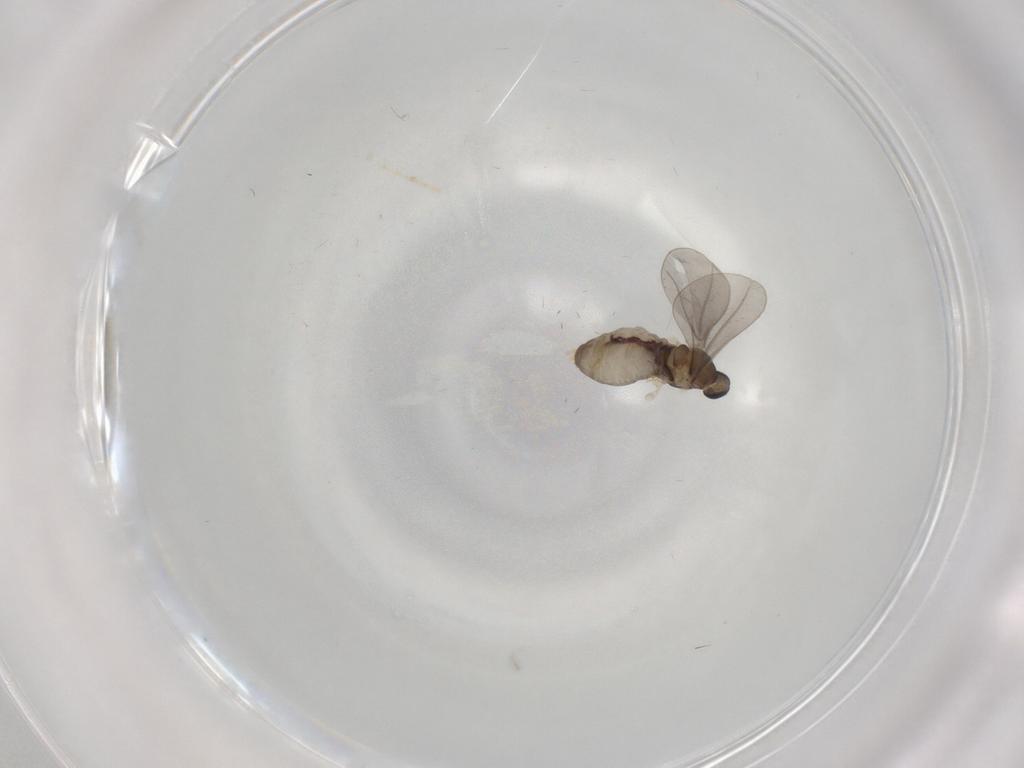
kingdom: Animalia
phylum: Arthropoda
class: Insecta
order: Diptera
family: Cecidomyiidae
